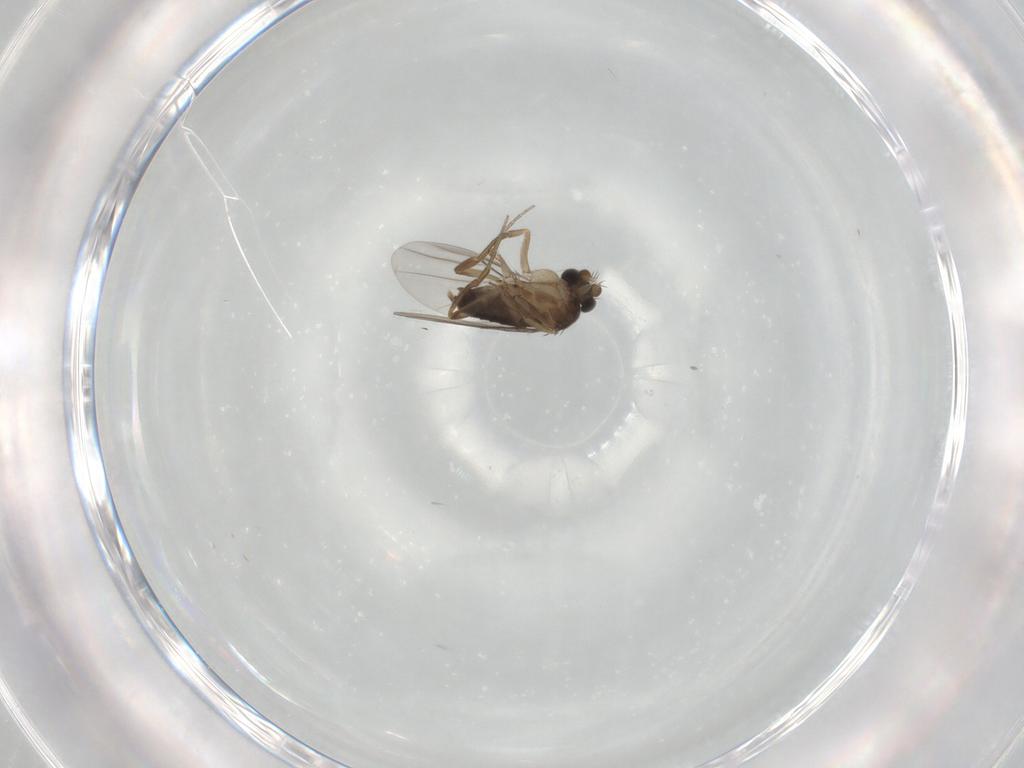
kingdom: Animalia
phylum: Arthropoda
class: Insecta
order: Diptera
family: Phoridae
